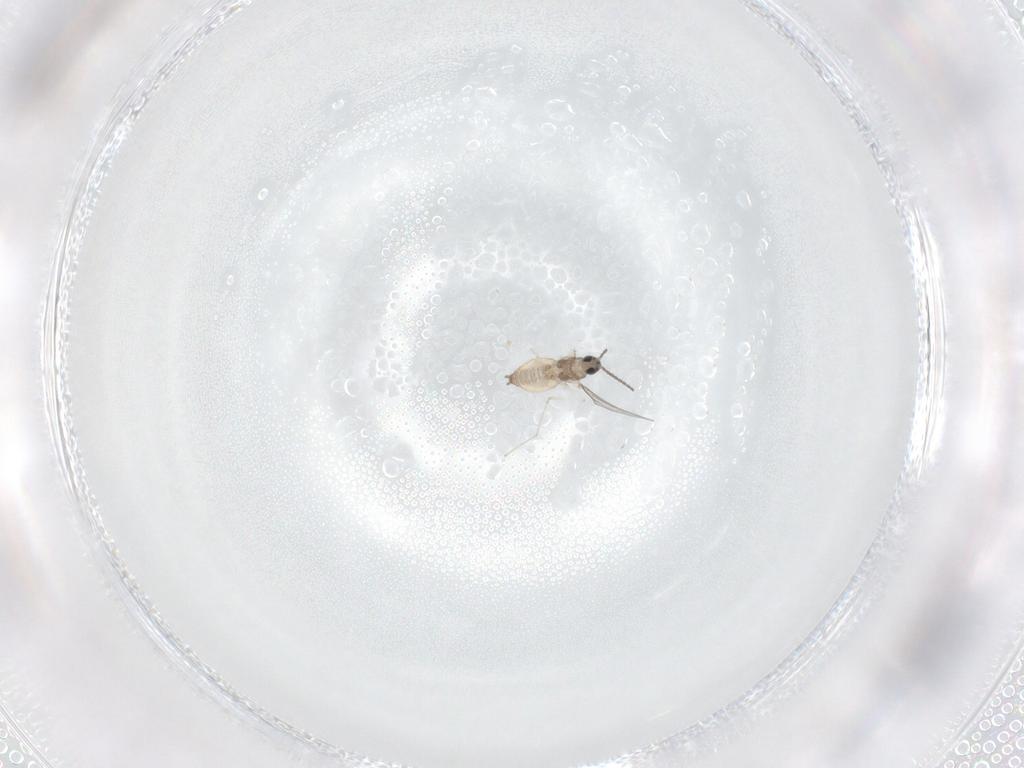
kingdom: Animalia
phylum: Arthropoda
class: Insecta
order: Diptera
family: Cecidomyiidae
